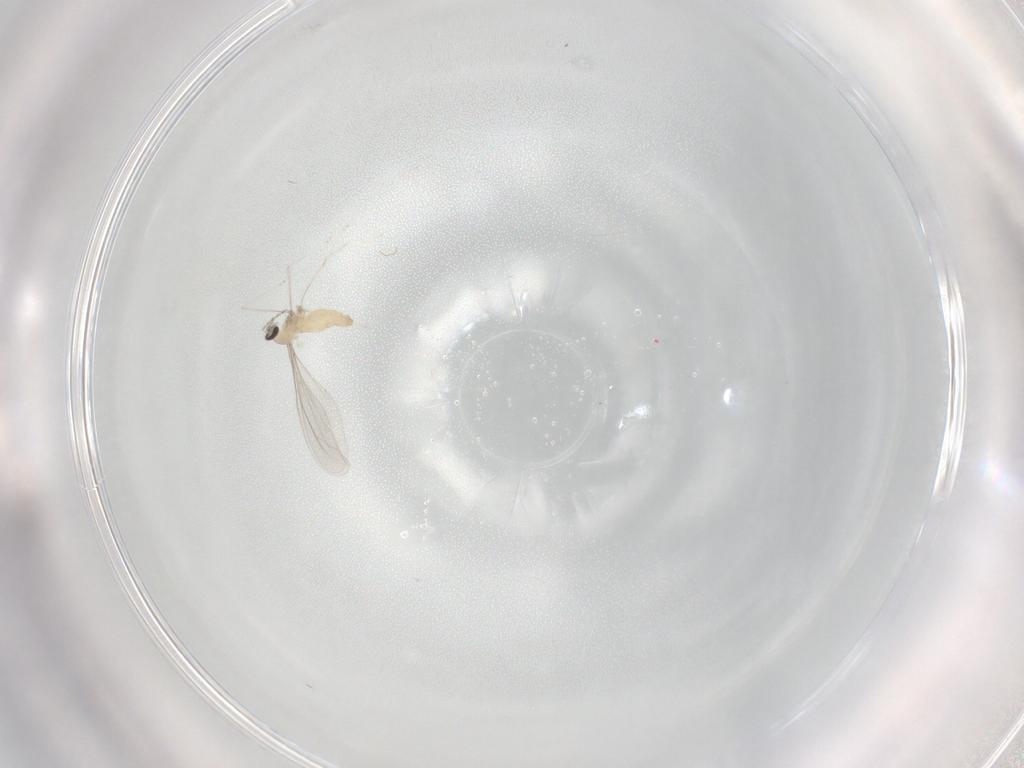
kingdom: Animalia
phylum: Arthropoda
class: Insecta
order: Diptera
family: Cecidomyiidae
